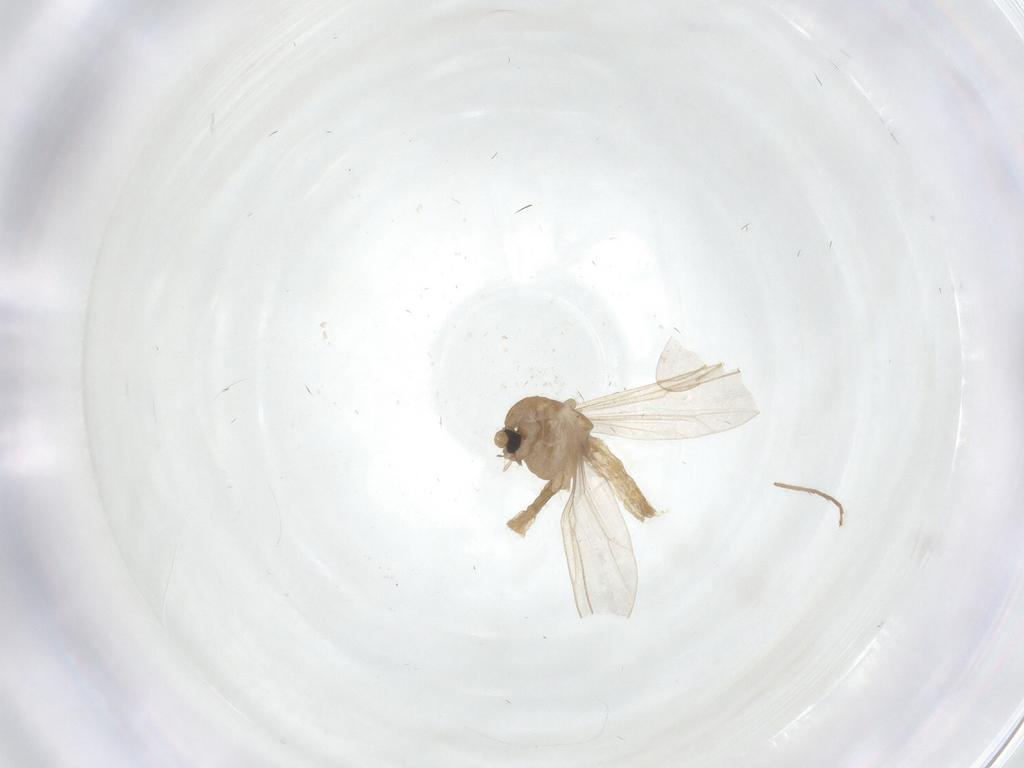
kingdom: Animalia
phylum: Arthropoda
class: Insecta
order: Diptera
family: Chironomidae
